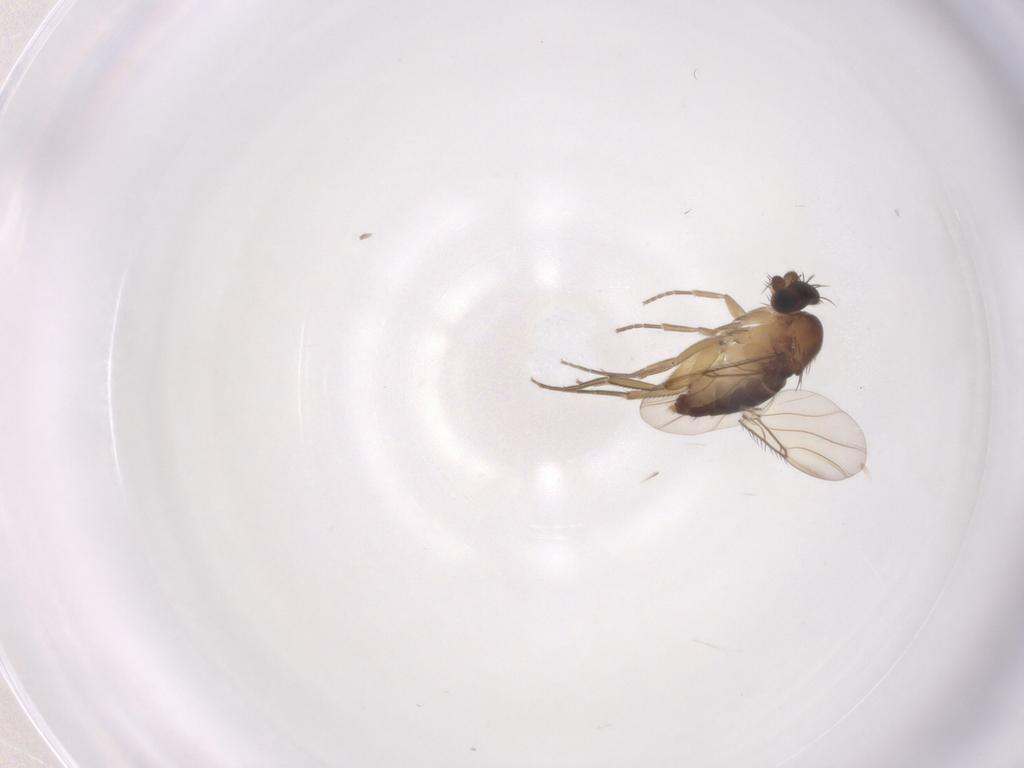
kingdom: Animalia
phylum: Arthropoda
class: Insecta
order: Diptera
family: Phoridae
